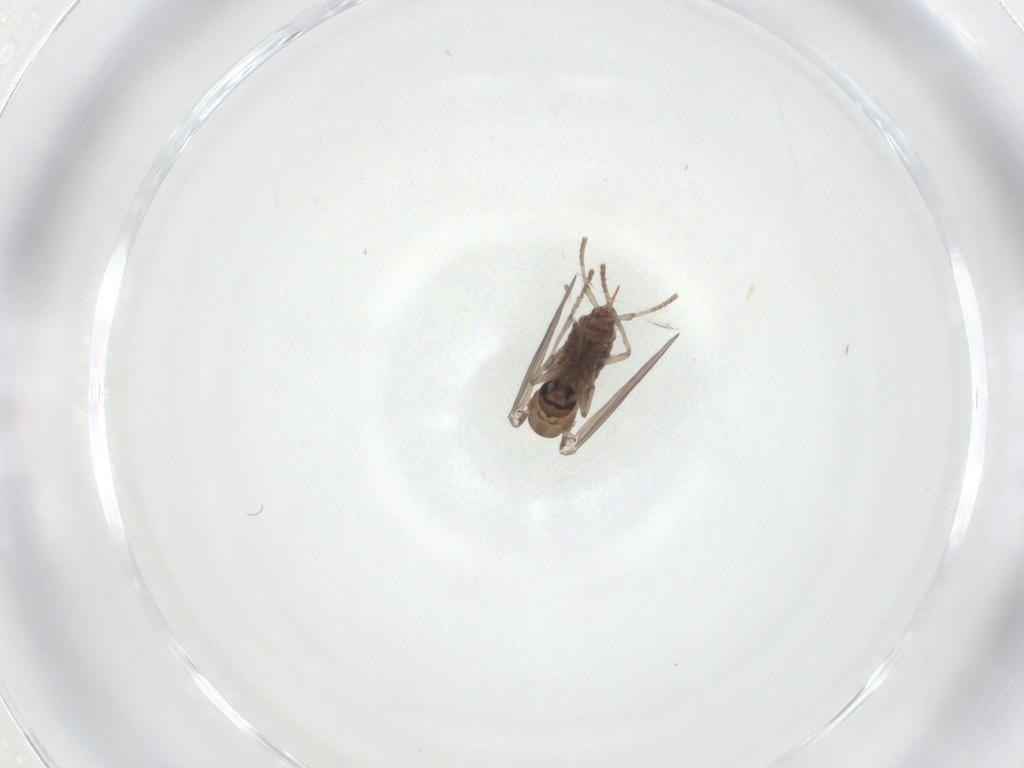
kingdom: Animalia
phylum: Arthropoda
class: Insecta
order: Diptera
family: Psychodidae
